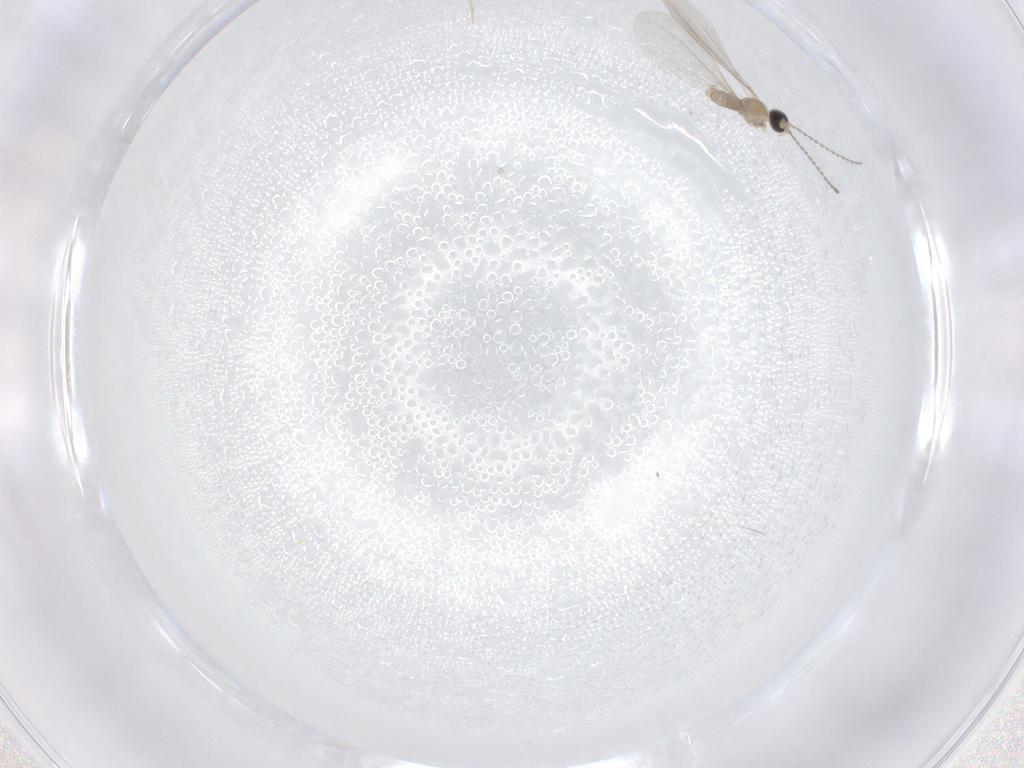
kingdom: Animalia
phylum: Arthropoda
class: Insecta
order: Diptera
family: Cecidomyiidae
